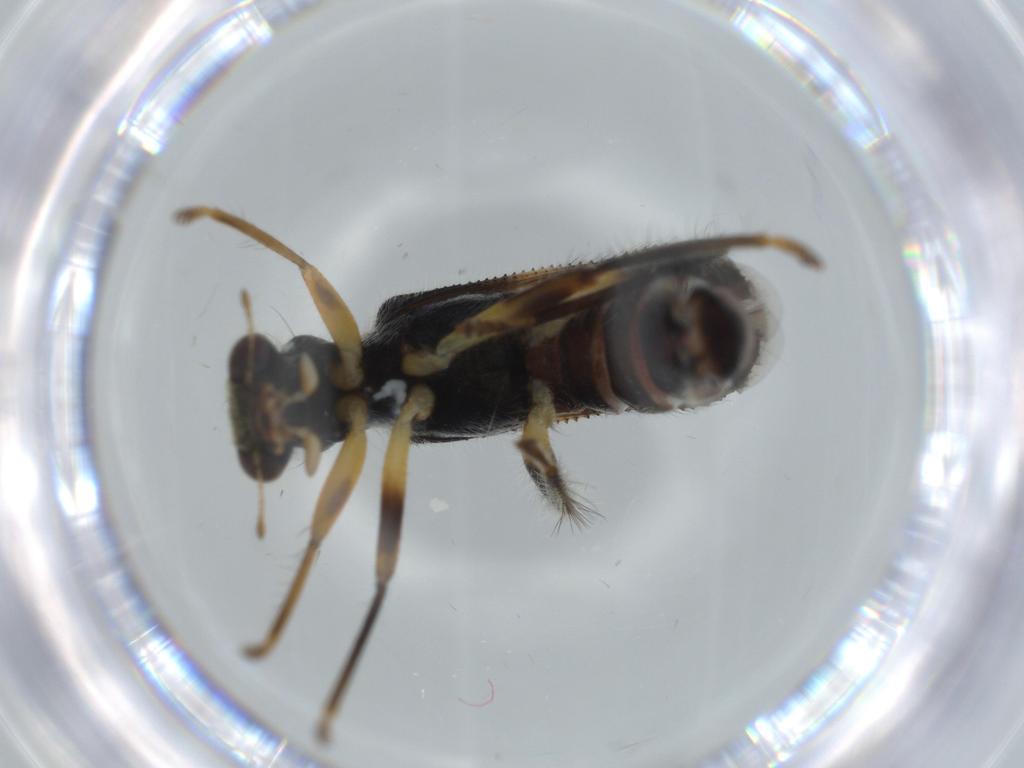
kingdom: Animalia
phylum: Arthropoda
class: Insecta
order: Coleoptera
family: Cleridae
